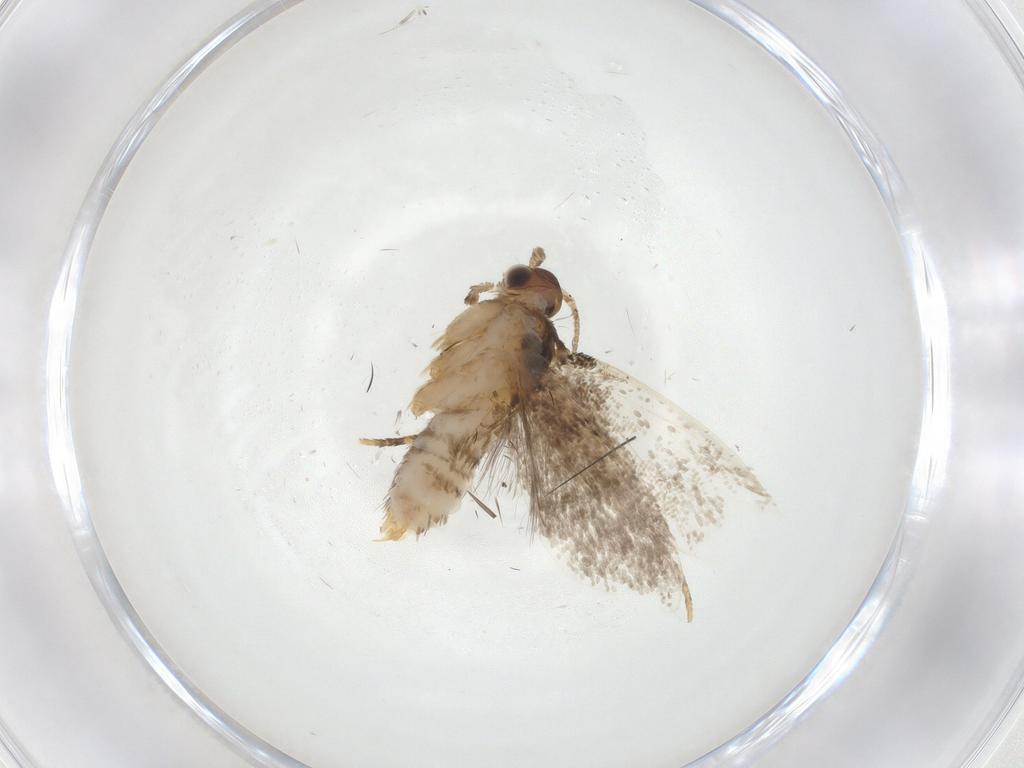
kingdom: Animalia
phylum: Arthropoda
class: Insecta
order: Lepidoptera
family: Dryadaulidae
